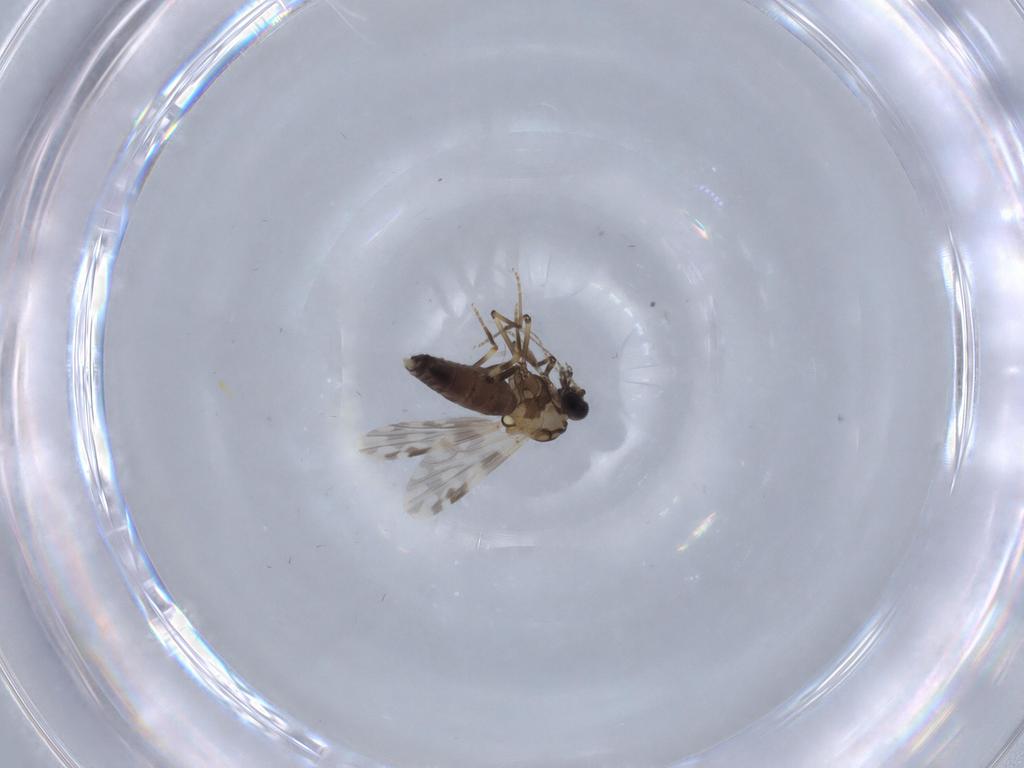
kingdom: Animalia
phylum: Arthropoda
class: Insecta
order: Diptera
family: Ceratopogonidae
